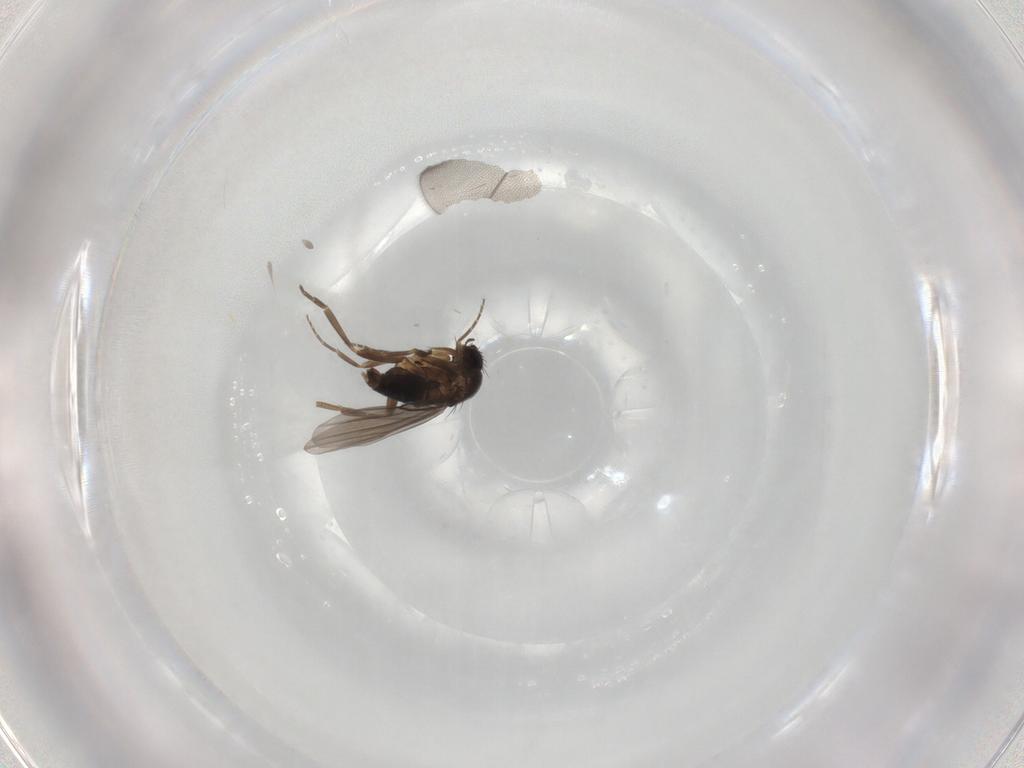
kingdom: Animalia
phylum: Arthropoda
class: Insecta
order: Diptera
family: Phoridae
